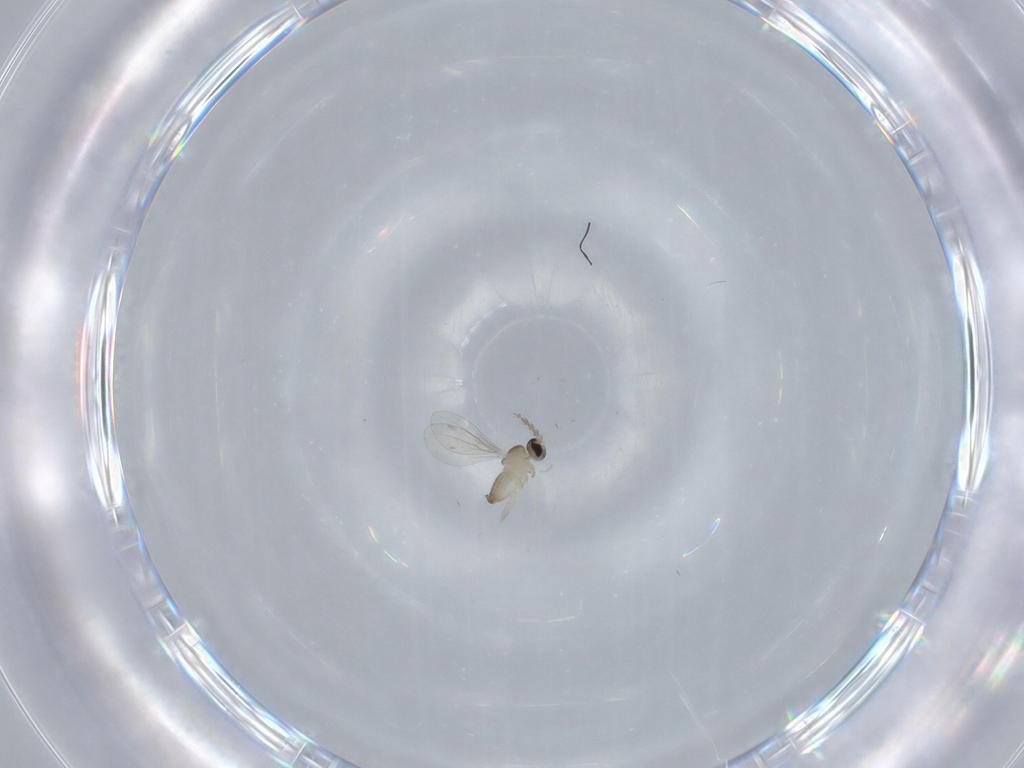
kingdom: Animalia
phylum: Arthropoda
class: Insecta
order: Diptera
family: Cecidomyiidae
